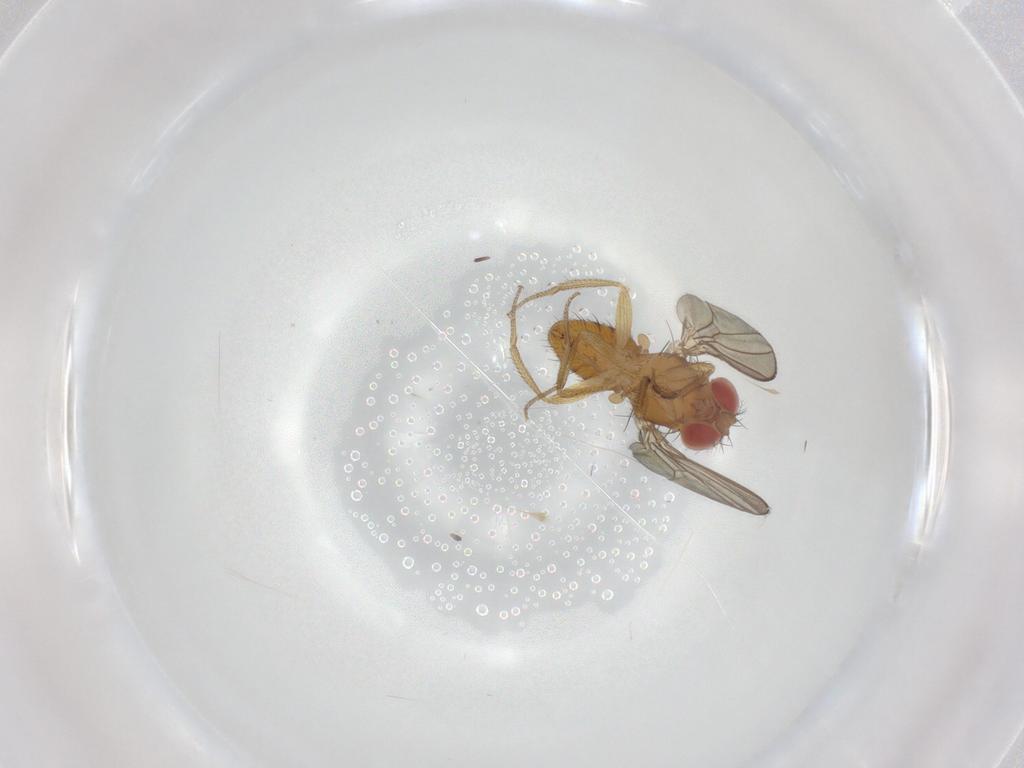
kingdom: Animalia
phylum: Arthropoda
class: Insecta
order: Diptera
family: Drosophilidae
